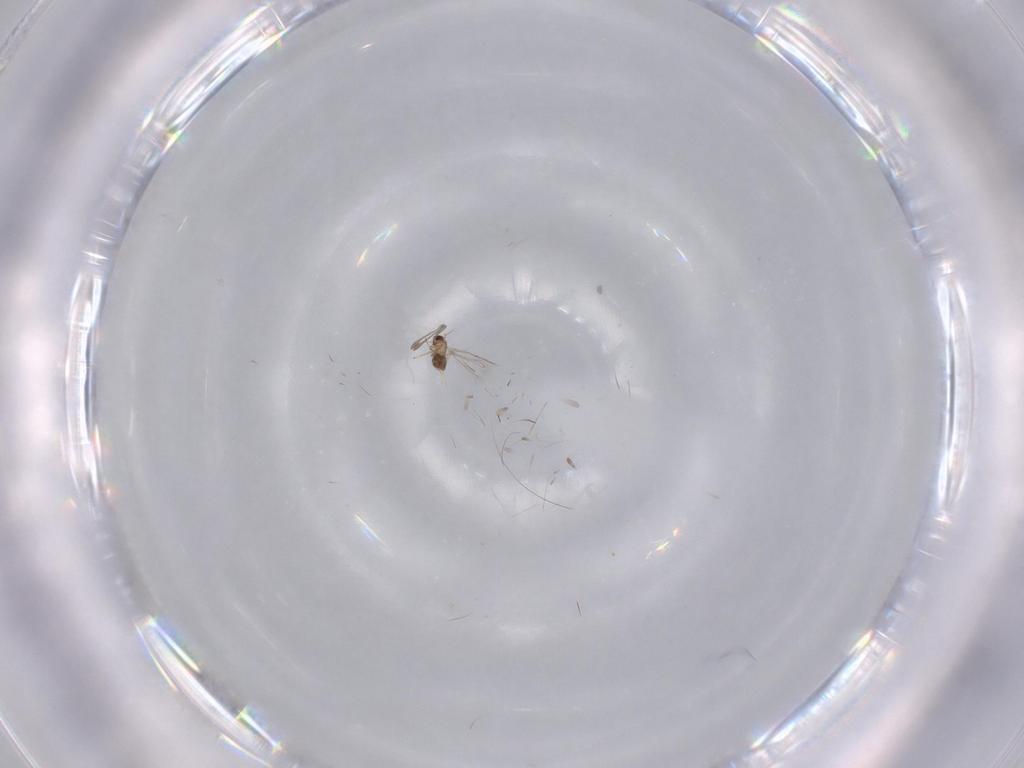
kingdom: Animalia
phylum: Arthropoda
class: Insecta
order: Hymenoptera
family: Mymaridae
